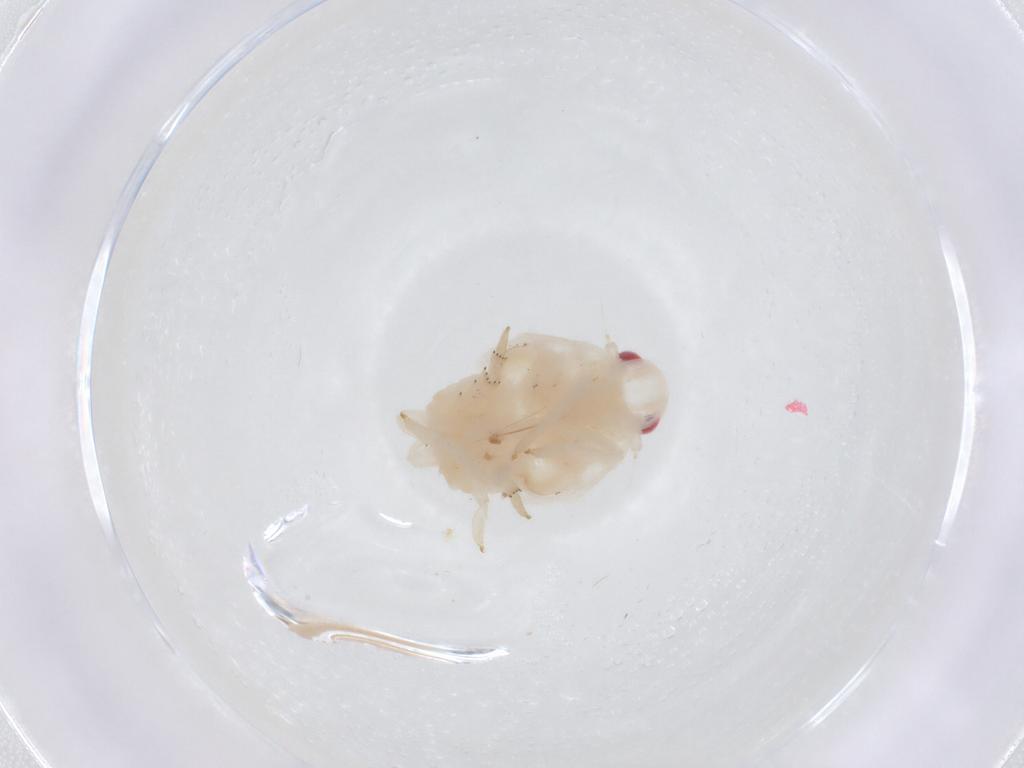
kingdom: Animalia
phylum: Arthropoda
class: Insecta
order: Hemiptera
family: Flatidae
